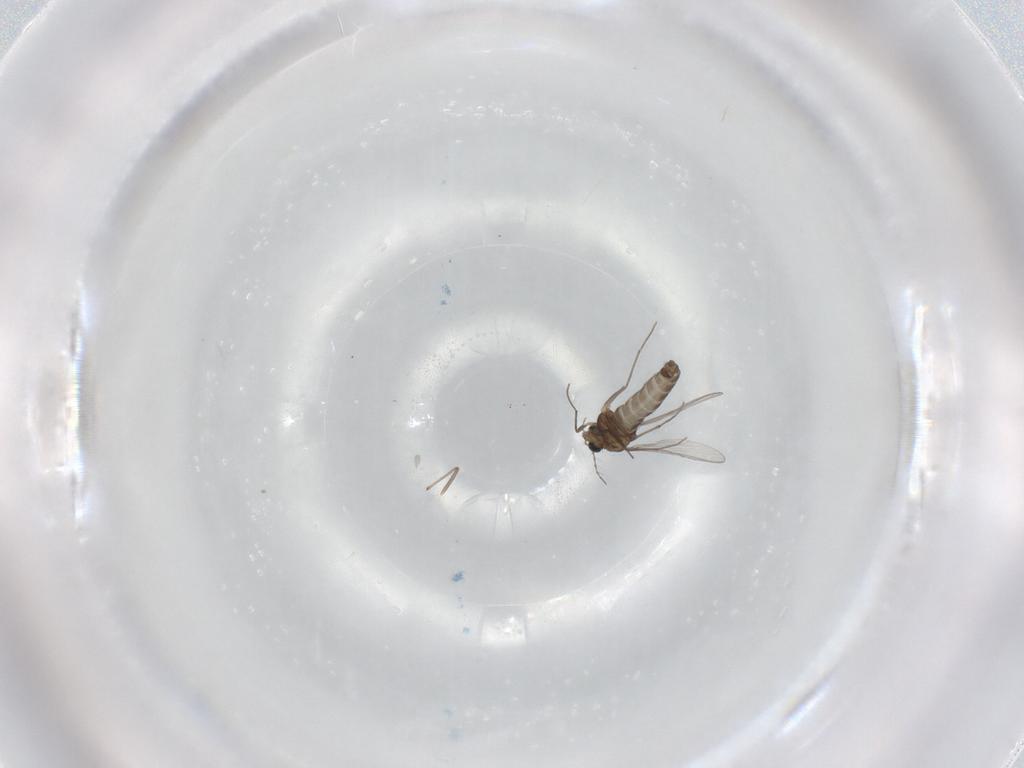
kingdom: Animalia
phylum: Arthropoda
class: Insecta
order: Diptera
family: Chironomidae
